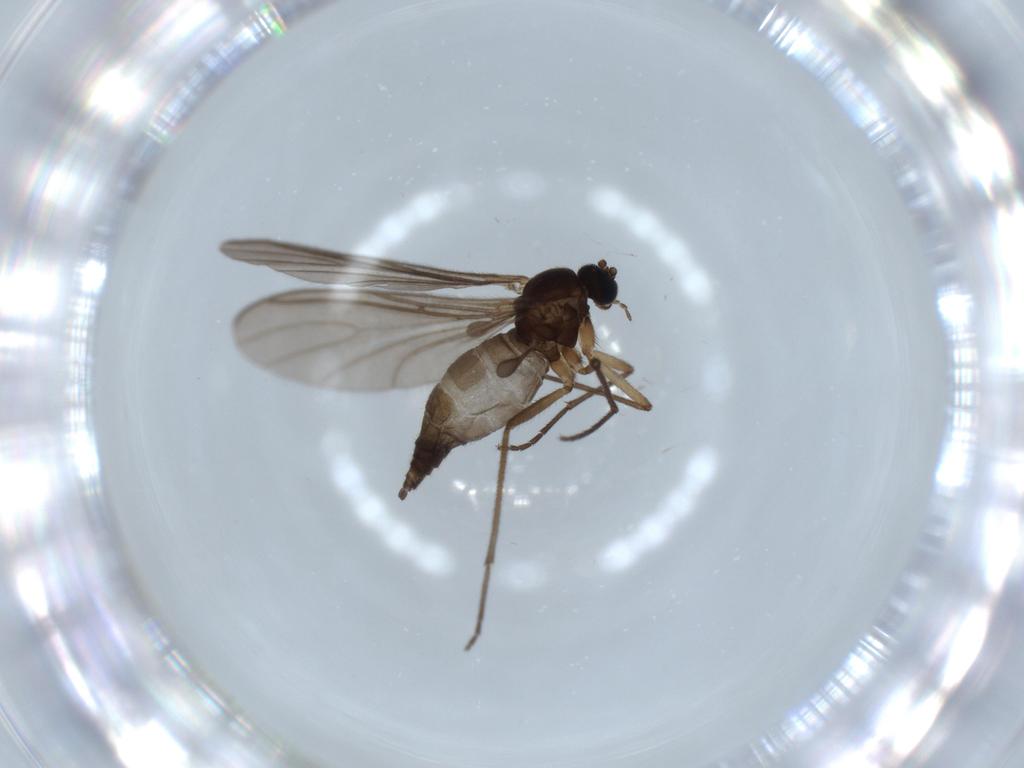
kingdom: Animalia
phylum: Arthropoda
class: Insecta
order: Diptera
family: Sciaridae
